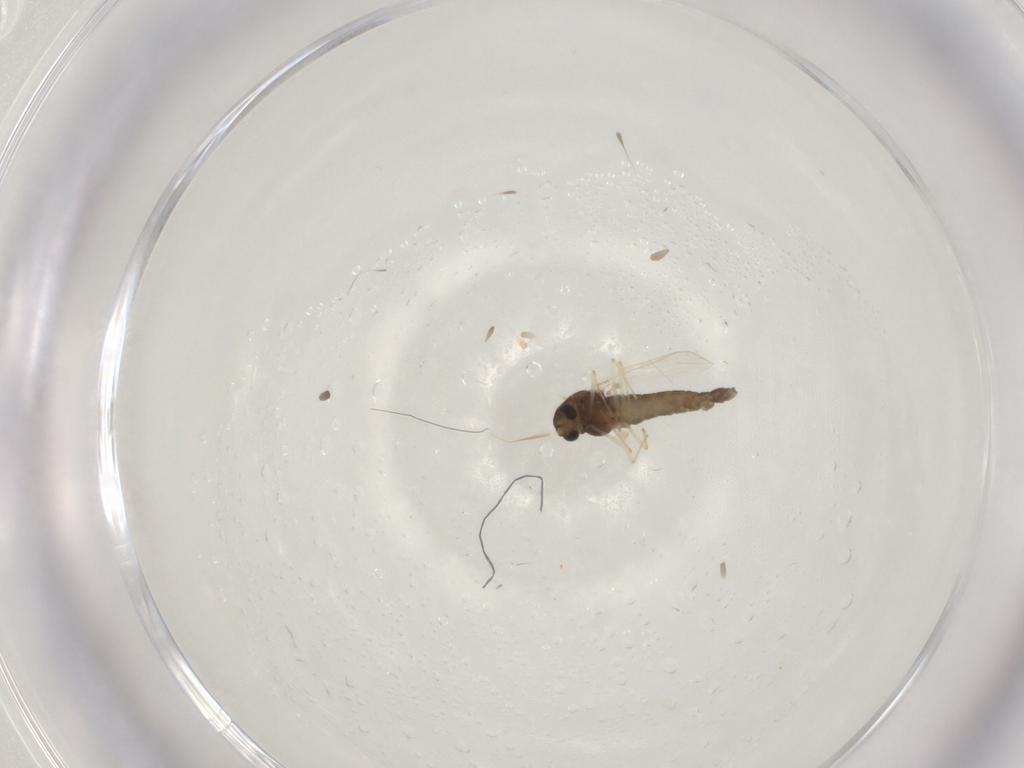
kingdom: Animalia
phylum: Arthropoda
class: Insecta
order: Diptera
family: Chironomidae
